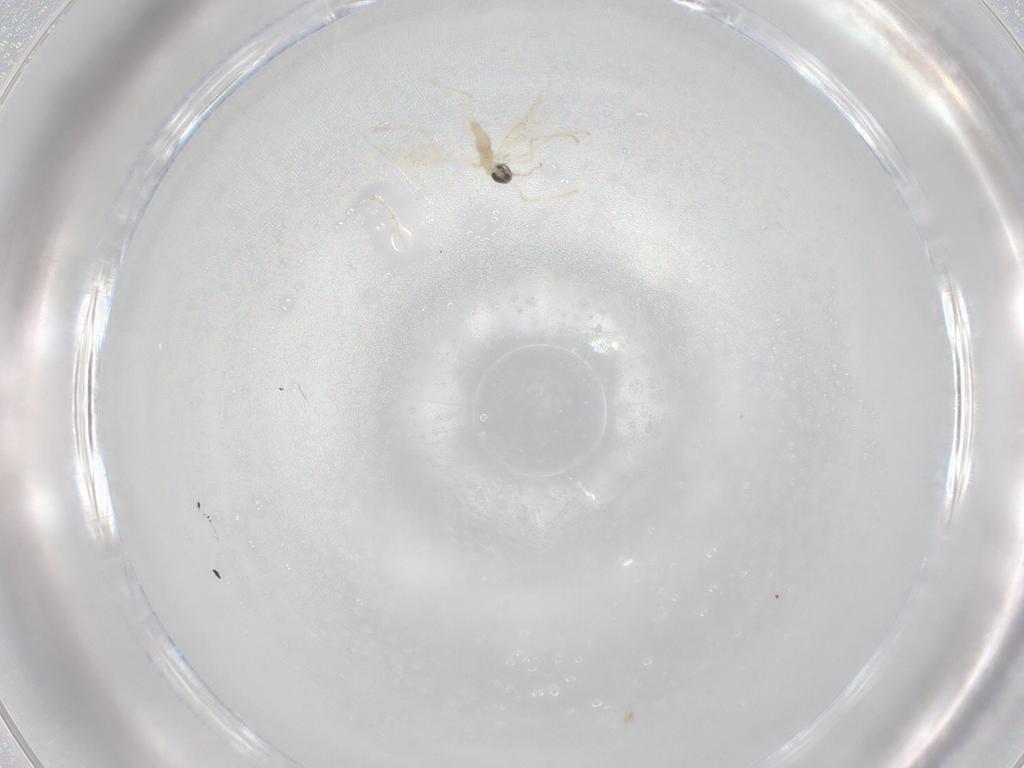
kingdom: Animalia
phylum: Arthropoda
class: Insecta
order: Diptera
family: Cecidomyiidae
